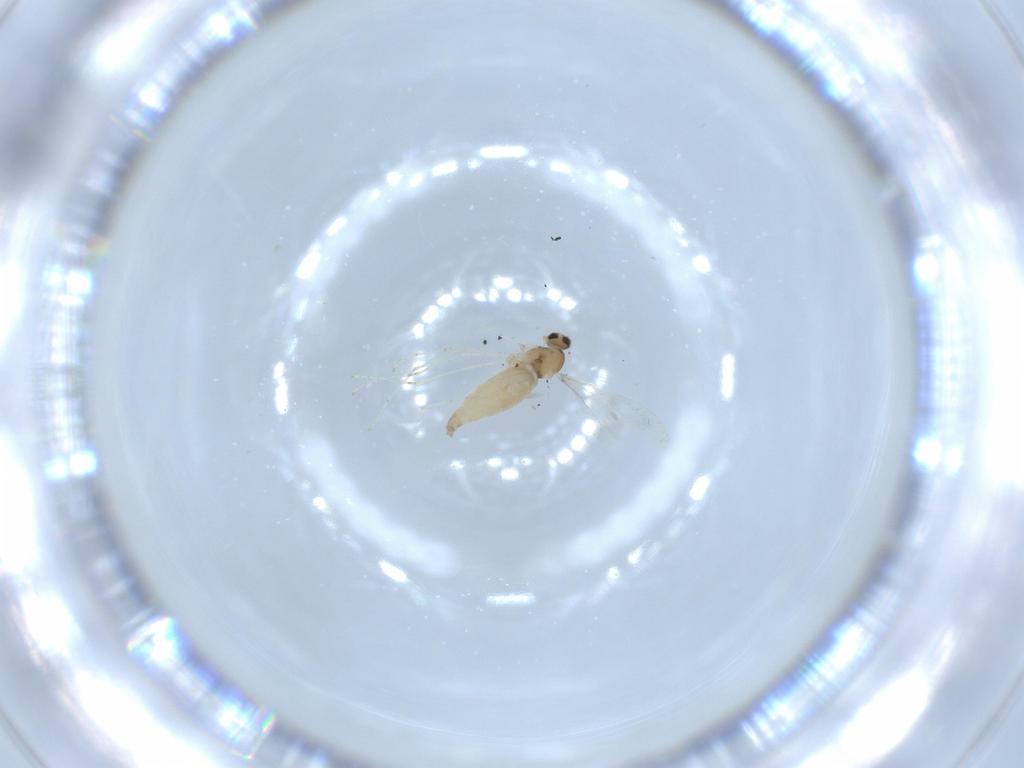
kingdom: Animalia
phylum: Arthropoda
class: Insecta
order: Diptera
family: Cecidomyiidae
